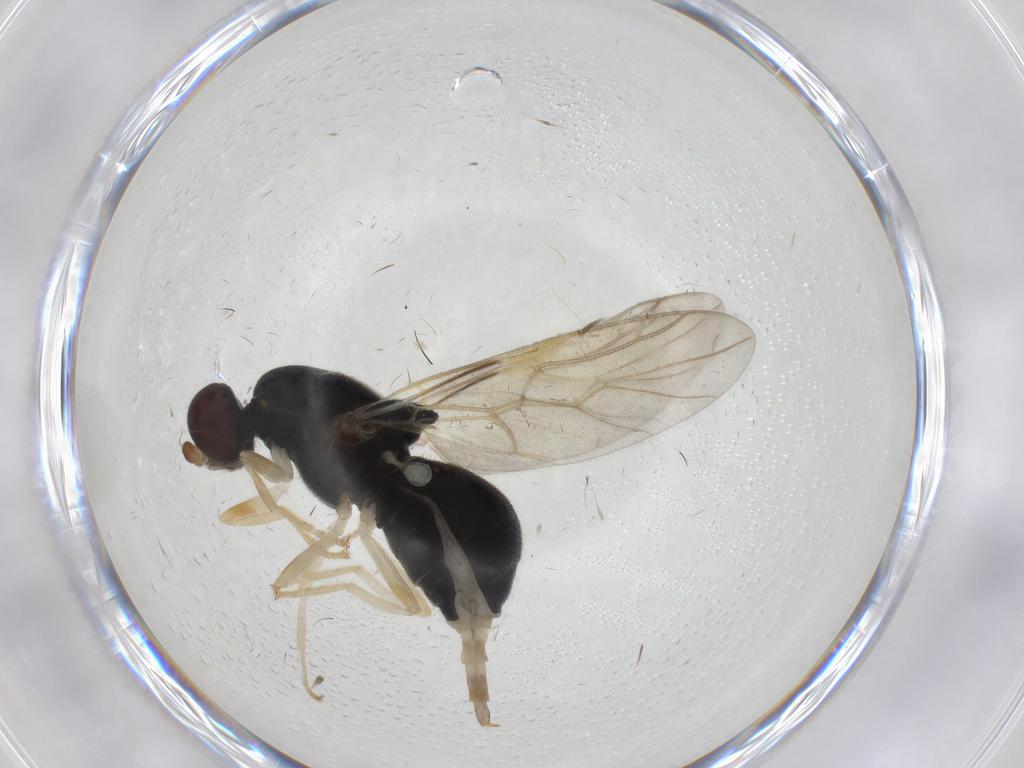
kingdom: Animalia
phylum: Arthropoda
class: Insecta
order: Diptera
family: Stratiomyidae
